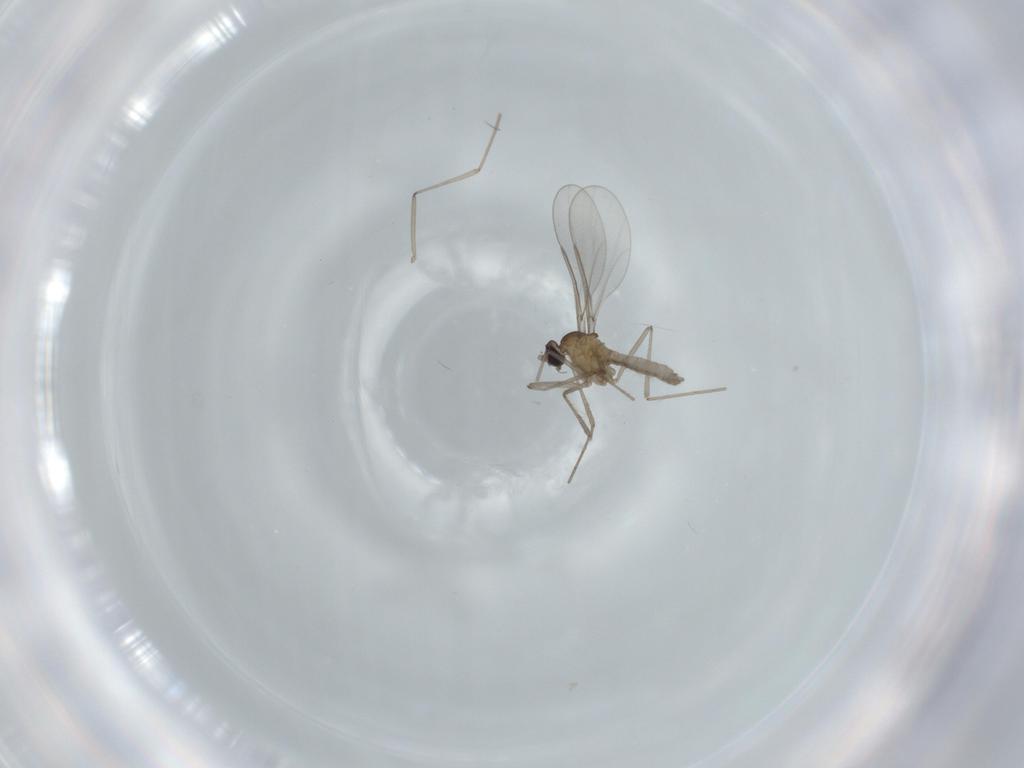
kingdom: Animalia
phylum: Arthropoda
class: Insecta
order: Diptera
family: Cecidomyiidae
